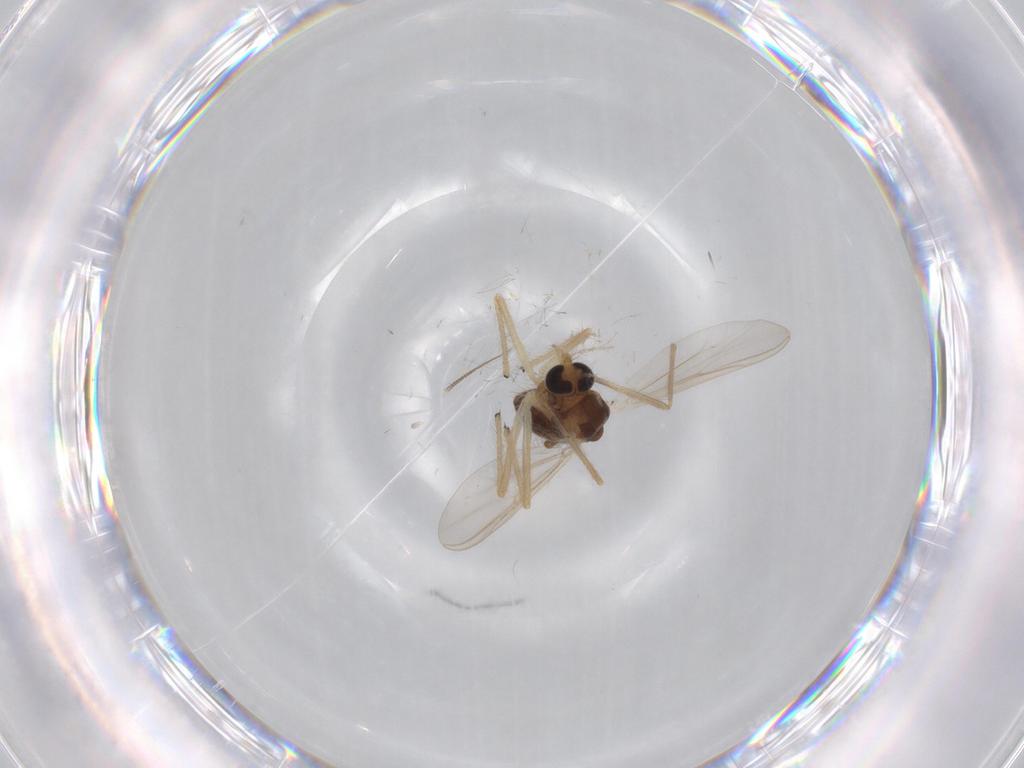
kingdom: Animalia
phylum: Arthropoda
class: Insecta
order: Diptera
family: Chironomidae
